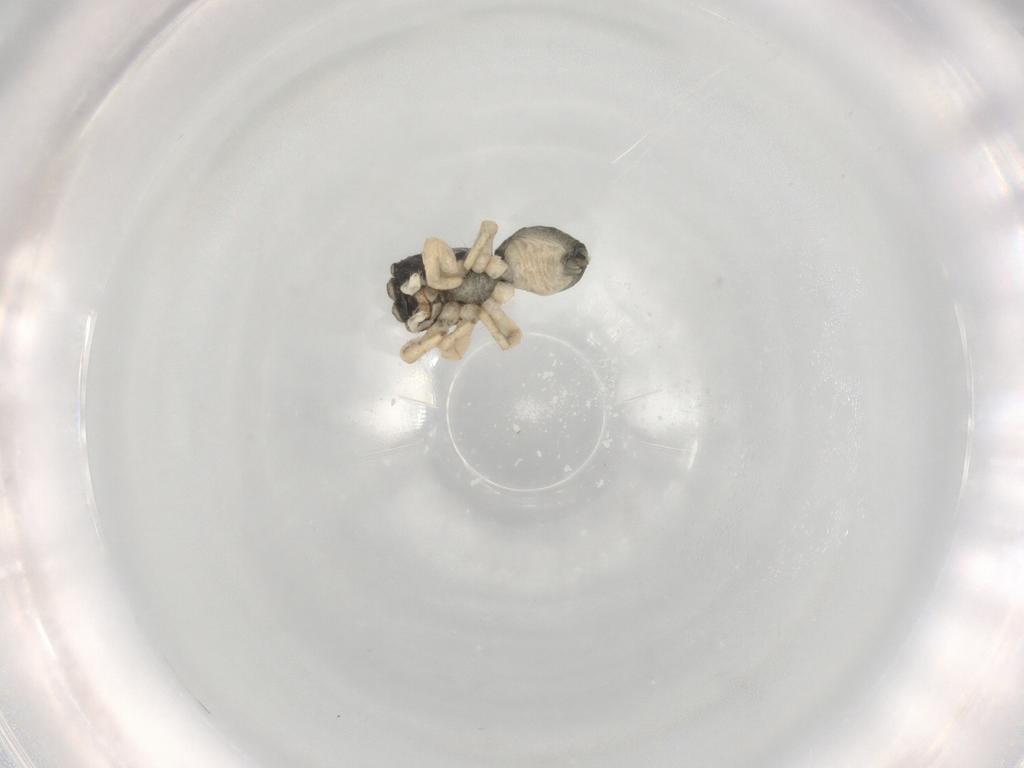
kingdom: Animalia
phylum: Arthropoda
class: Arachnida
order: Araneae
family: Salticidae
